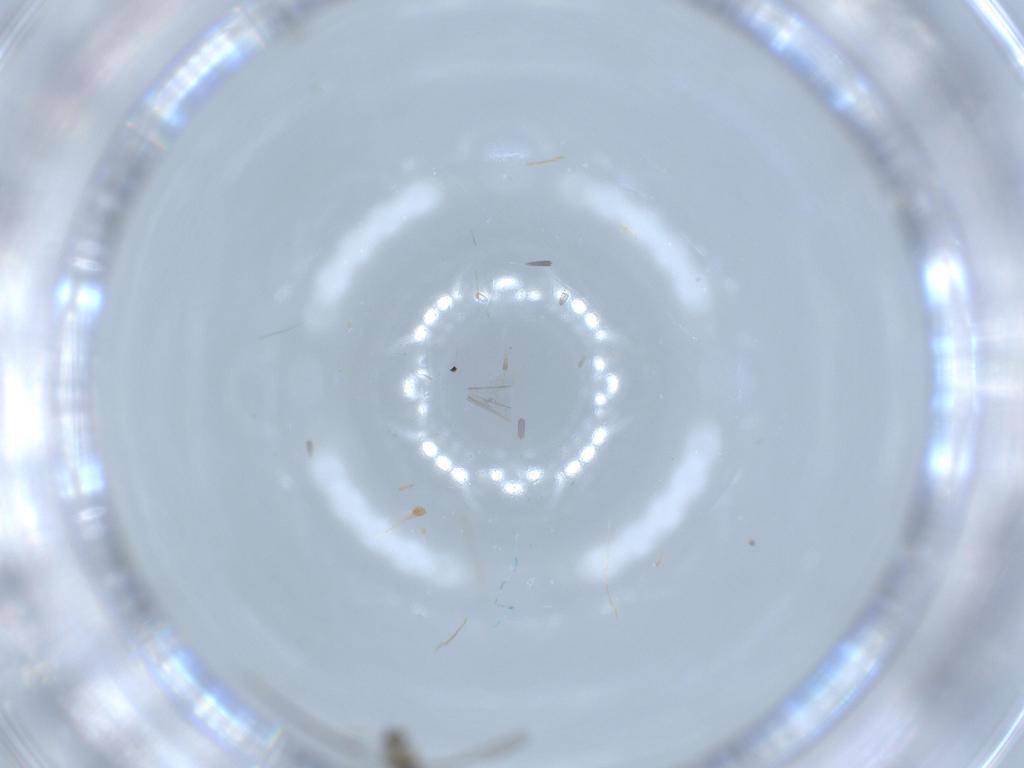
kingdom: Animalia
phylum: Arthropoda
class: Insecta
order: Diptera
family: Cecidomyiidae
